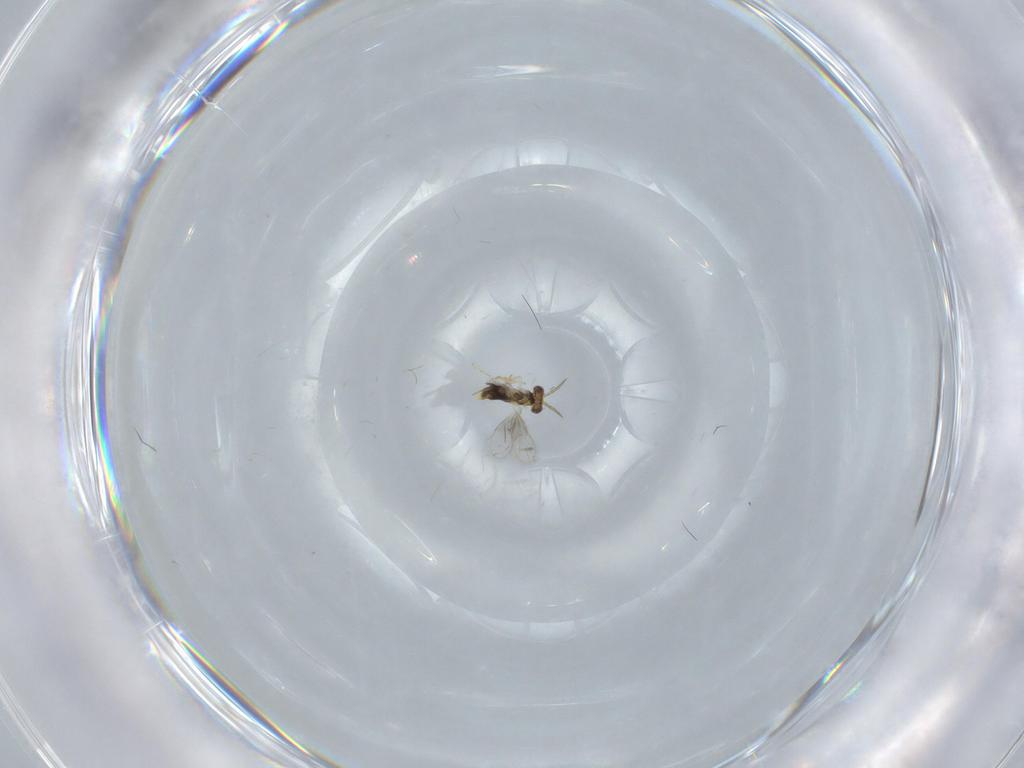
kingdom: Animalia
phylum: Arthropoda
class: Insecta
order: Hymenoptera
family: Aphelinidae
